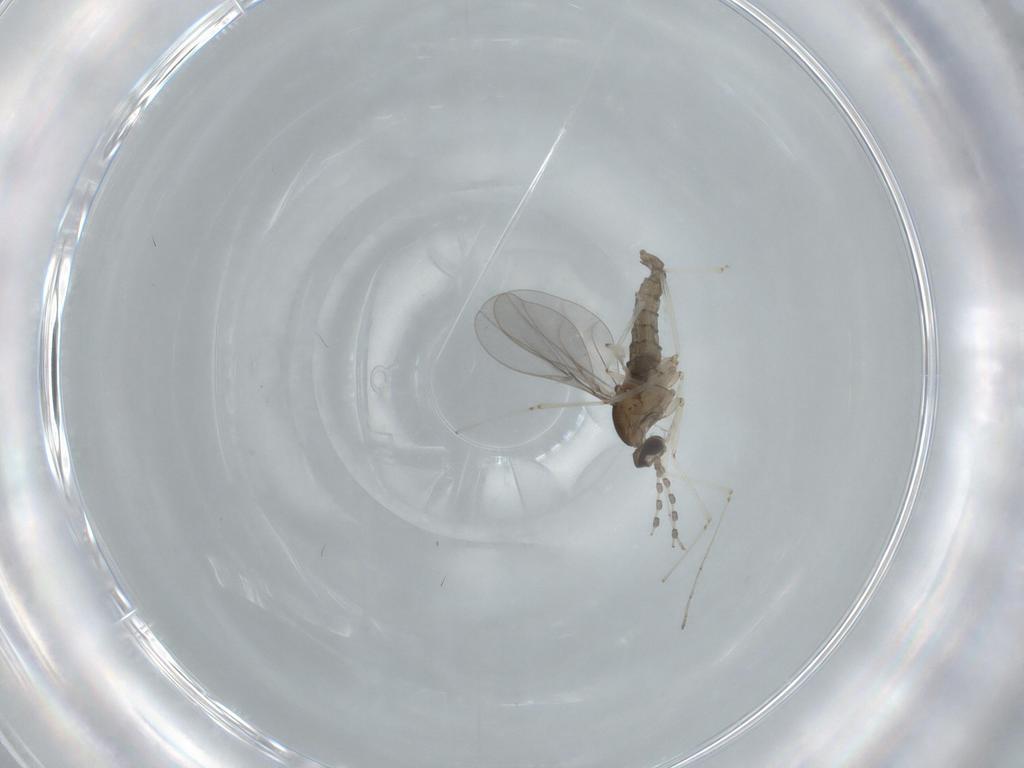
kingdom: Animalia
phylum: Arthropoda
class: Insecta
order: Diptera
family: Cecidomyiidae
